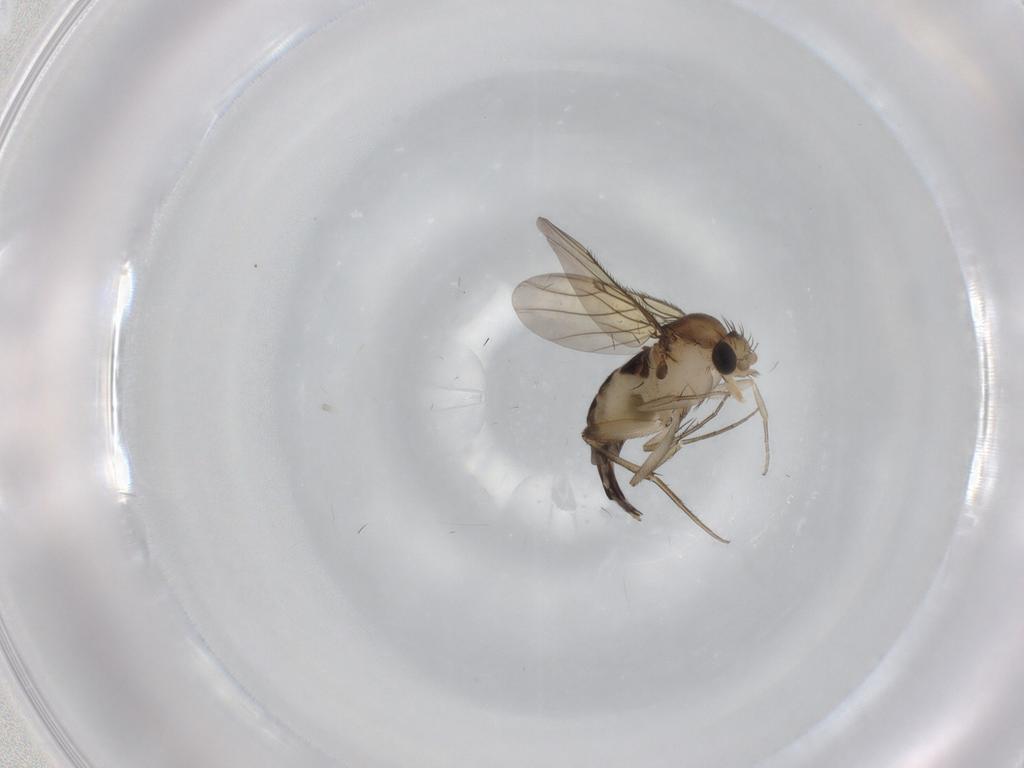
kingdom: Animalia
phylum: Arthropoda
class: Insecta
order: Diptera
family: Phoridae
